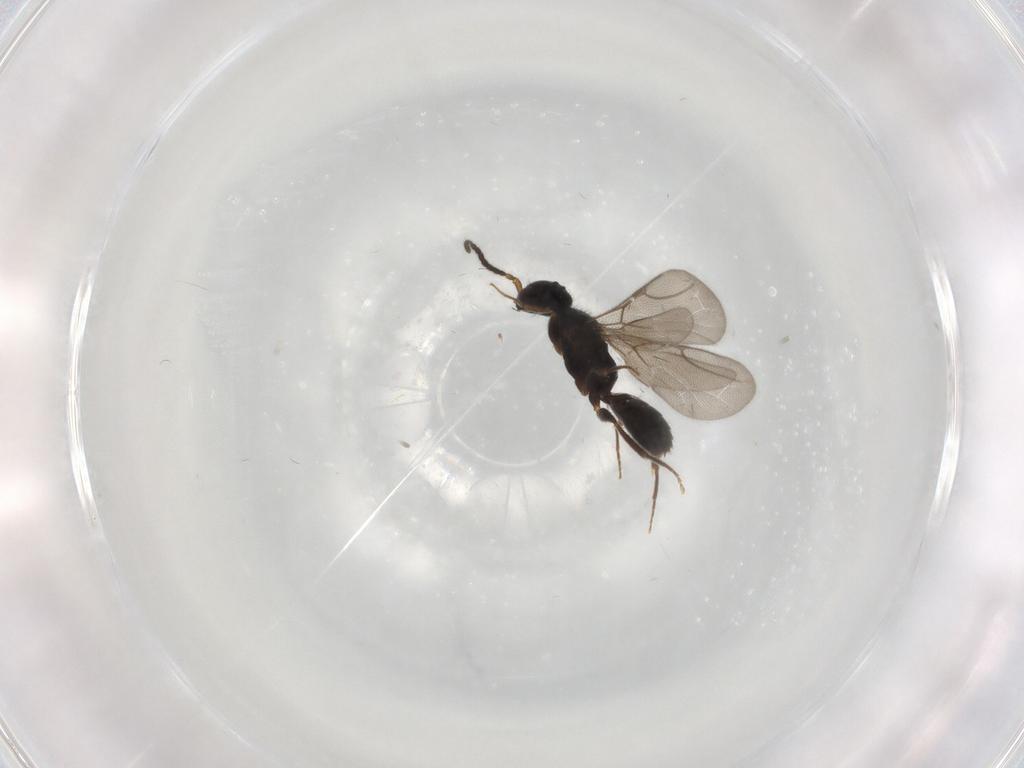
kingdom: Animalia
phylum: Arthropoda
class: Insecta
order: Hymenoptera
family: Bethylidae
